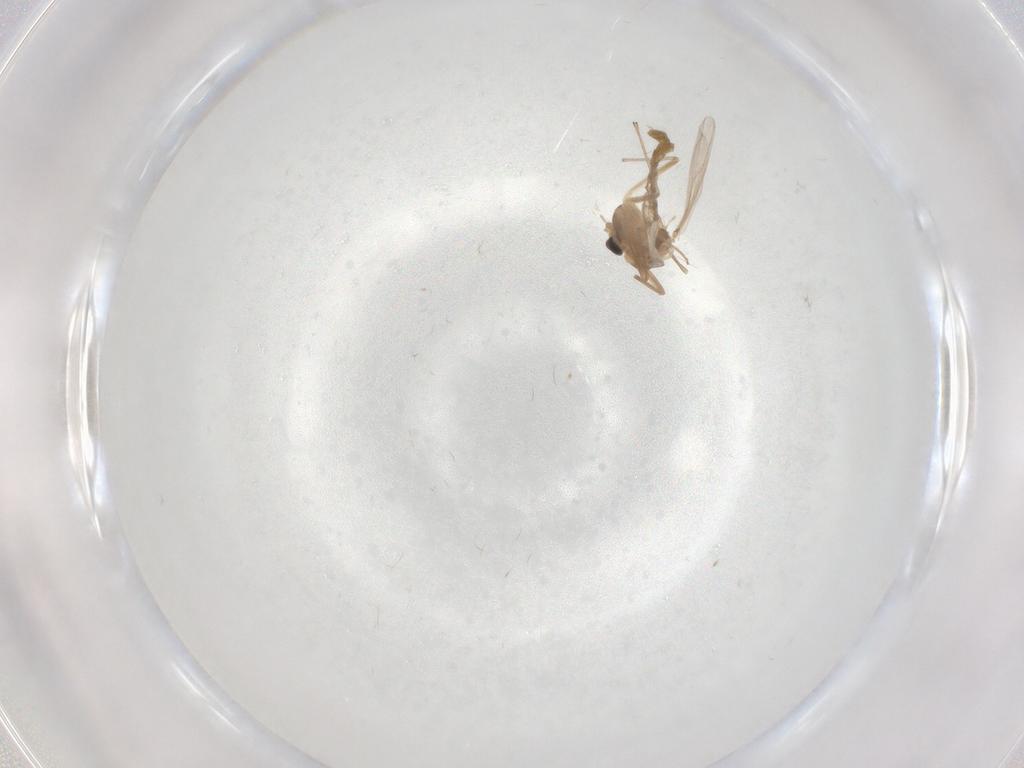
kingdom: Animalia
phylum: Arthropoda
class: Insecta
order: Diptera
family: Chironomidae
